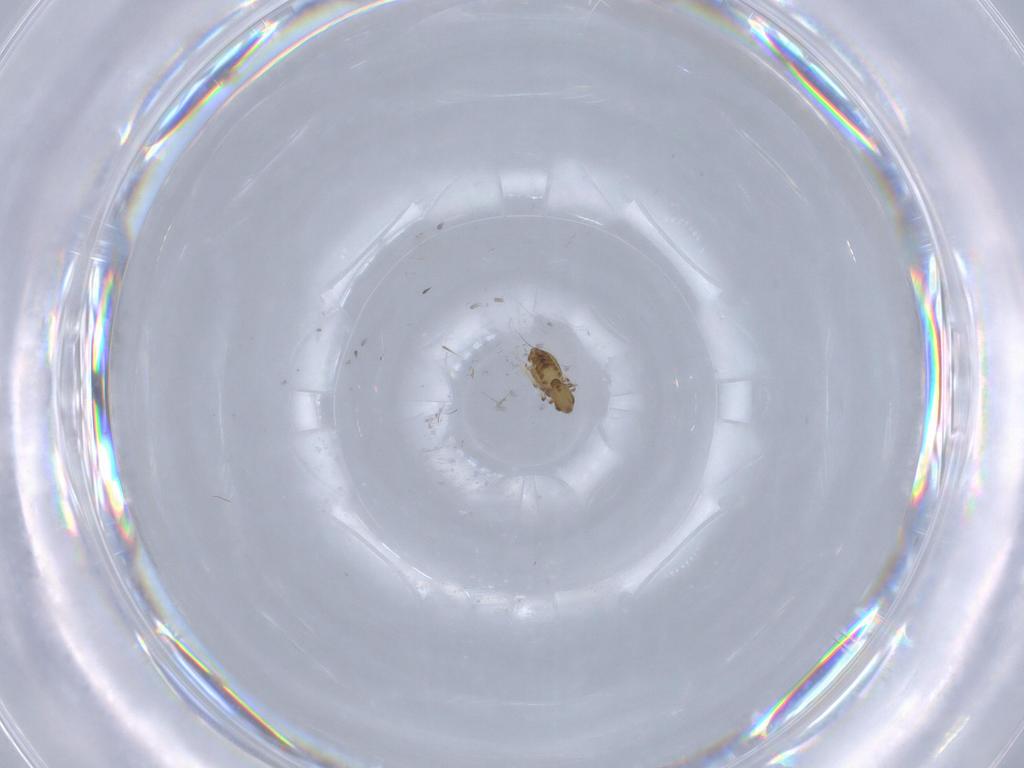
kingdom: Animalia
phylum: Arthropoda
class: Insecta
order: Diptera
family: Chironomidae
